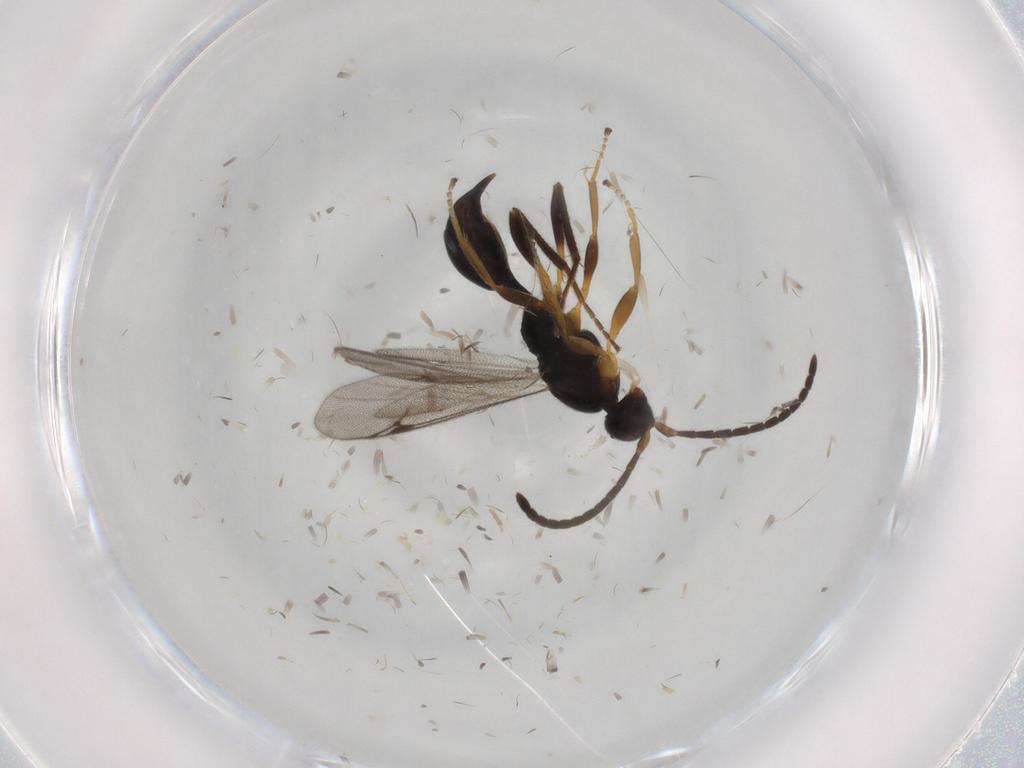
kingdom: Animalia
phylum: Arthropoda
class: Insecta
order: Hymenoptera
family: Proctotrupidae
